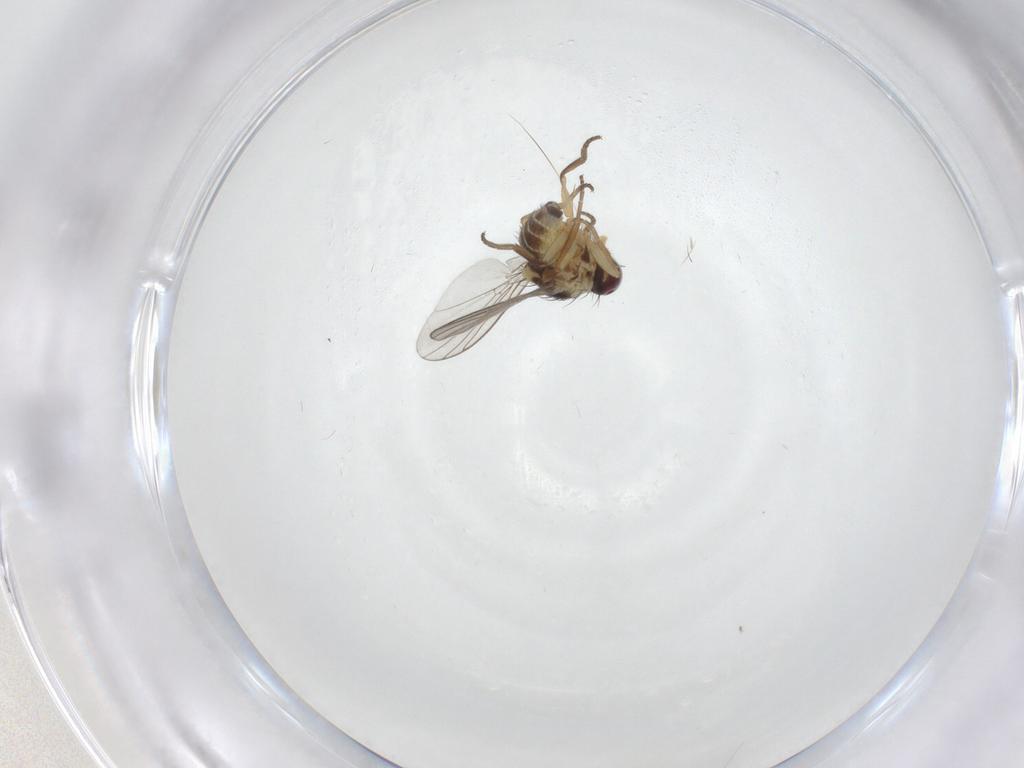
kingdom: Animalia
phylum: Arthropoda
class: Insecta
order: Diptera
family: Agromyzidae
